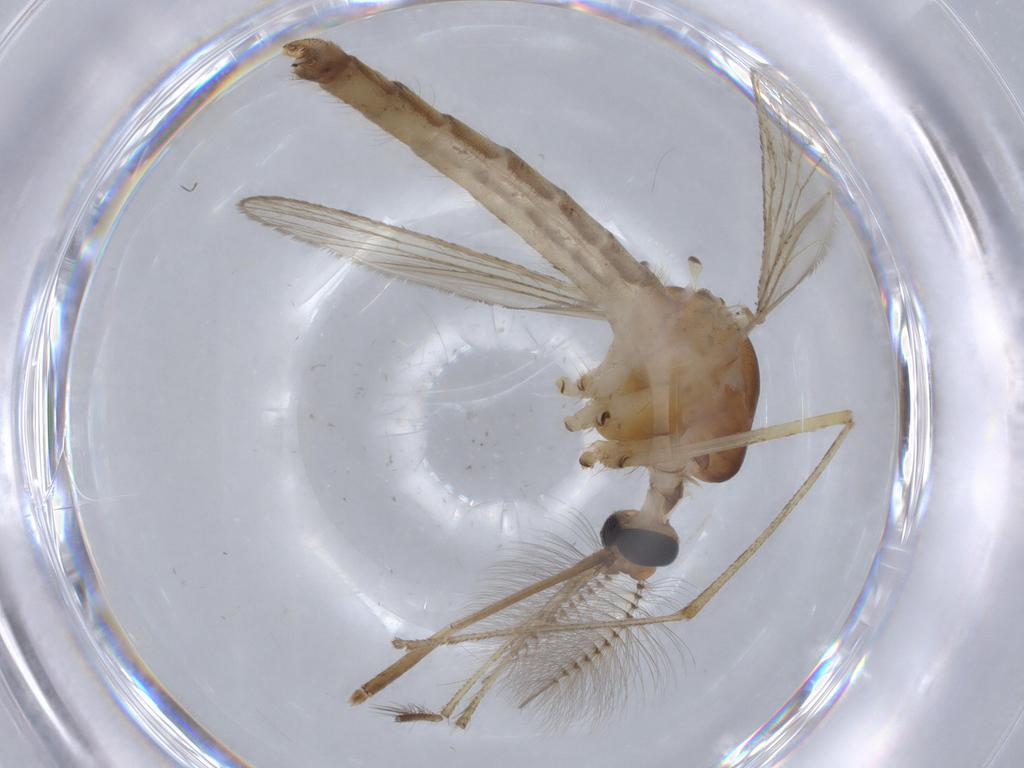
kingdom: Animalia
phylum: Arthropoda
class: Insecta
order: Diptera
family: Culicidae
